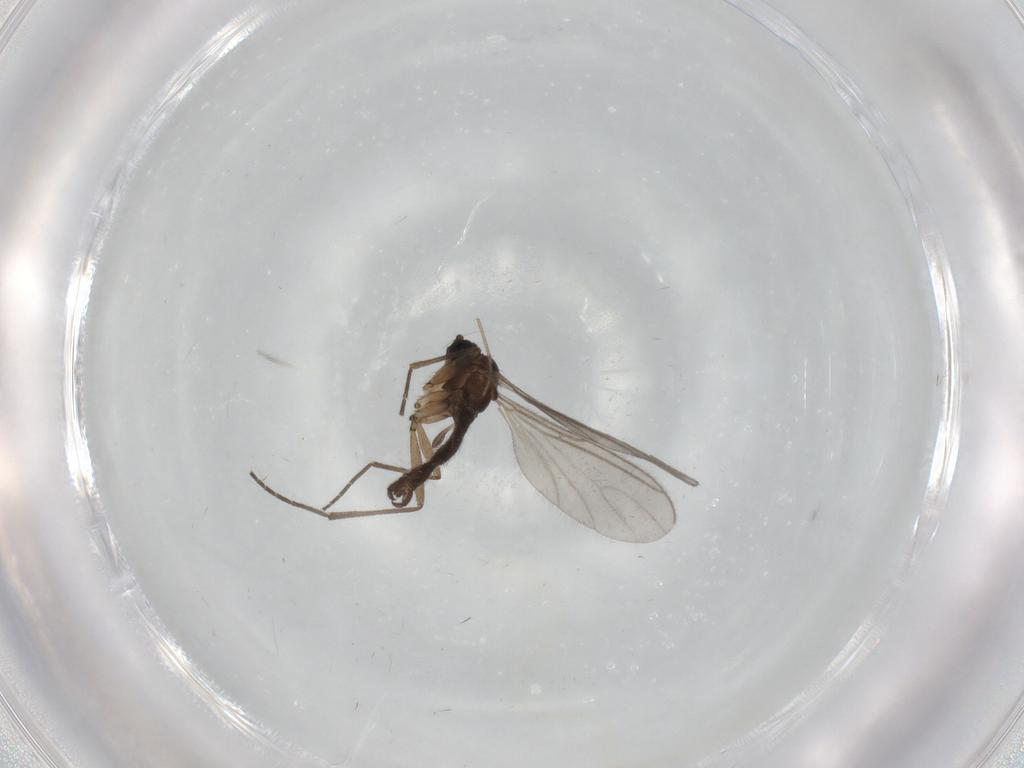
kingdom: Animalia
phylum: Arthropoda
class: Insecta
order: Diptera
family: Sciaridae
